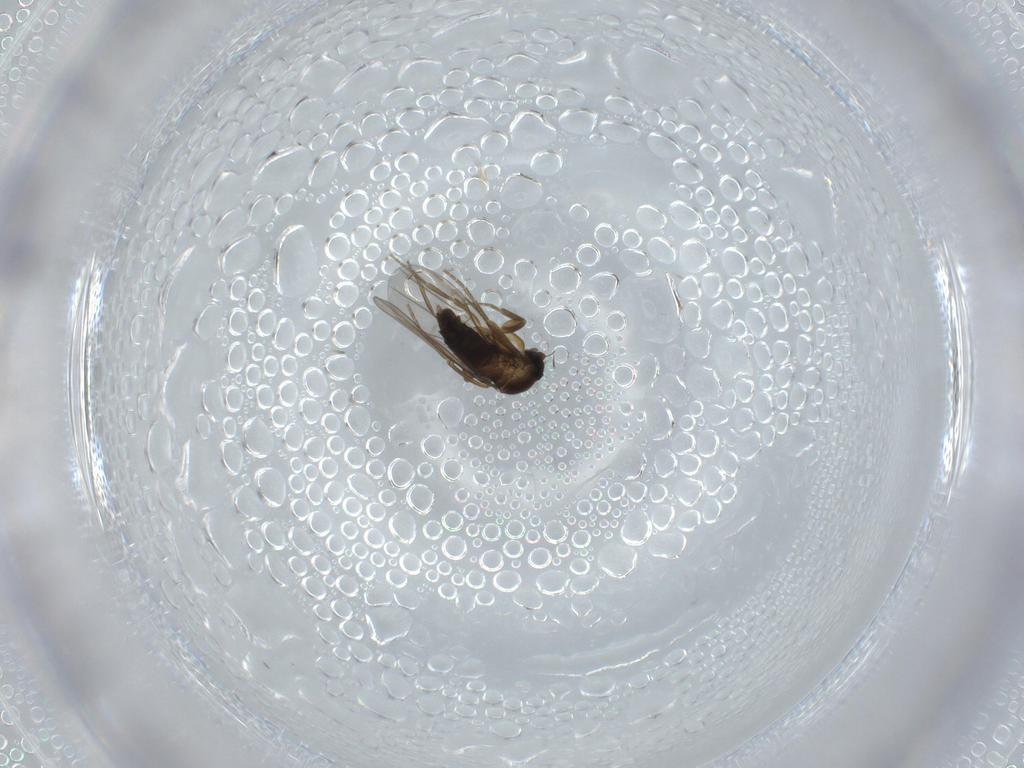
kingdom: Animalia
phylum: Arthropoda
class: Insecta
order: Diptera
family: Phoridae
